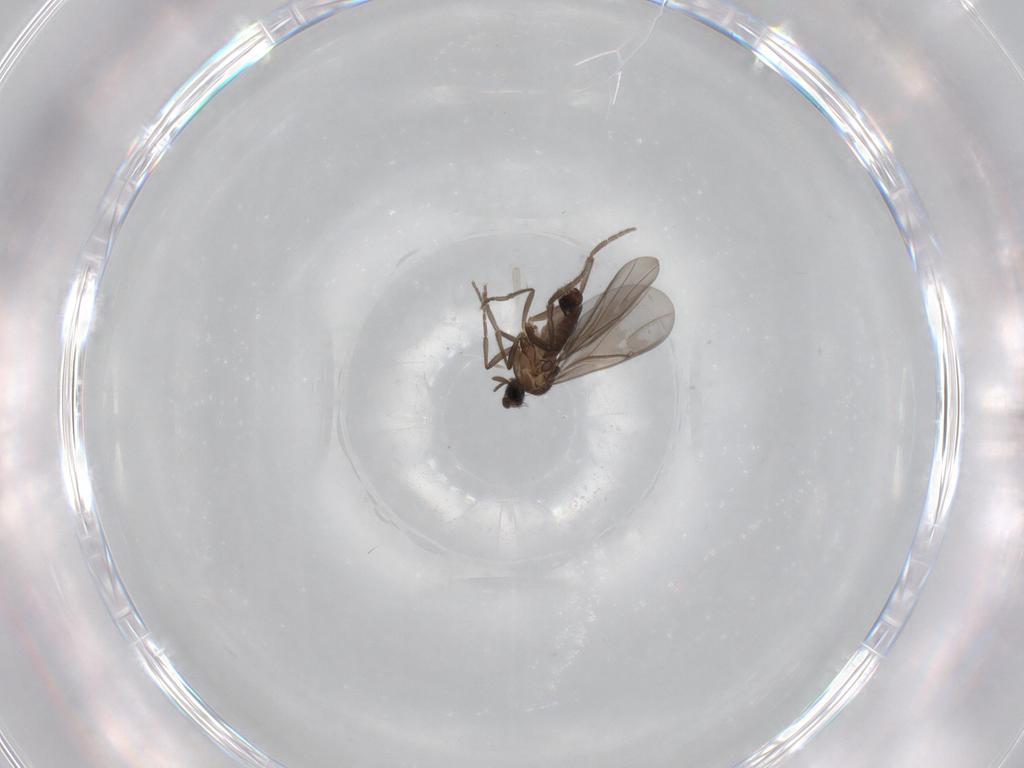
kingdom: Animalia
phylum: Arthropoda
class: Insecta
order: Diptera
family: Phoridae
